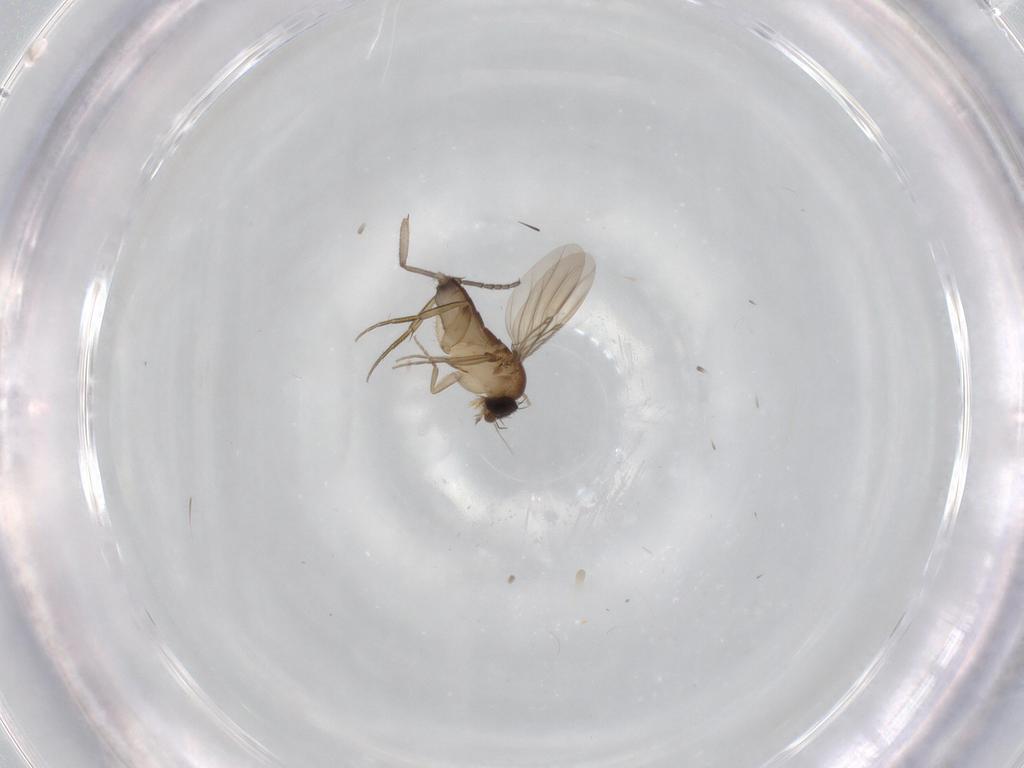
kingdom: Animalia
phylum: Arthropoda
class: Insecta
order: Diptera
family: Phoridae
